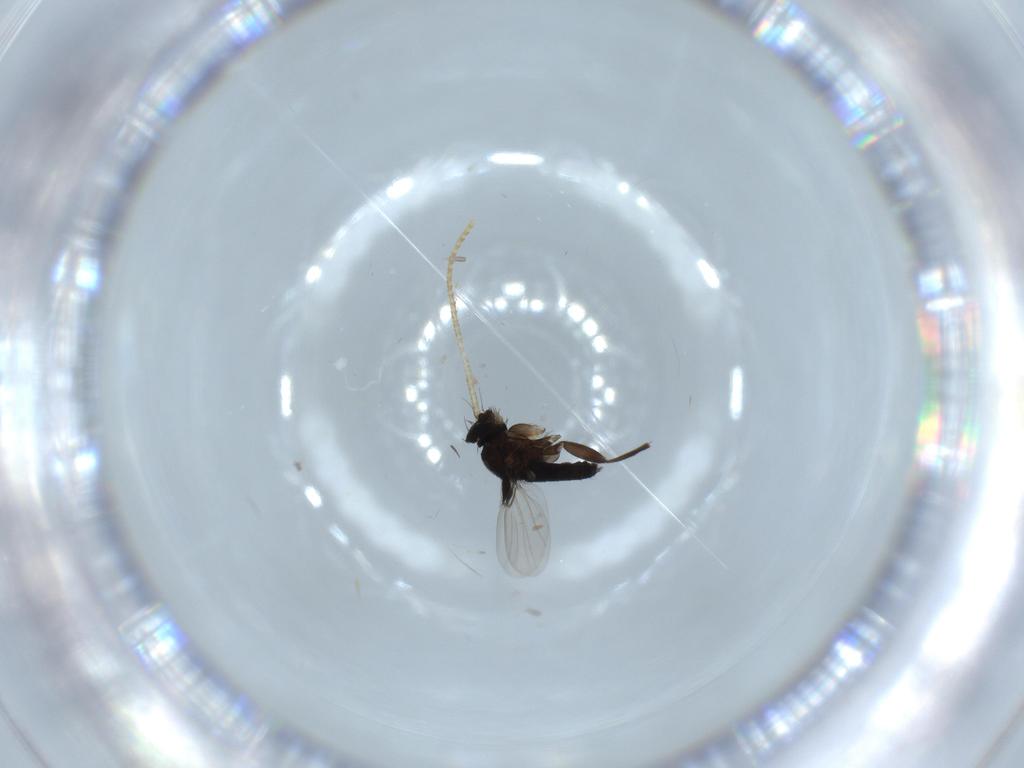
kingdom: Animalia
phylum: Arthropoda
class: Insecta
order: Diptera
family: Phoridae
